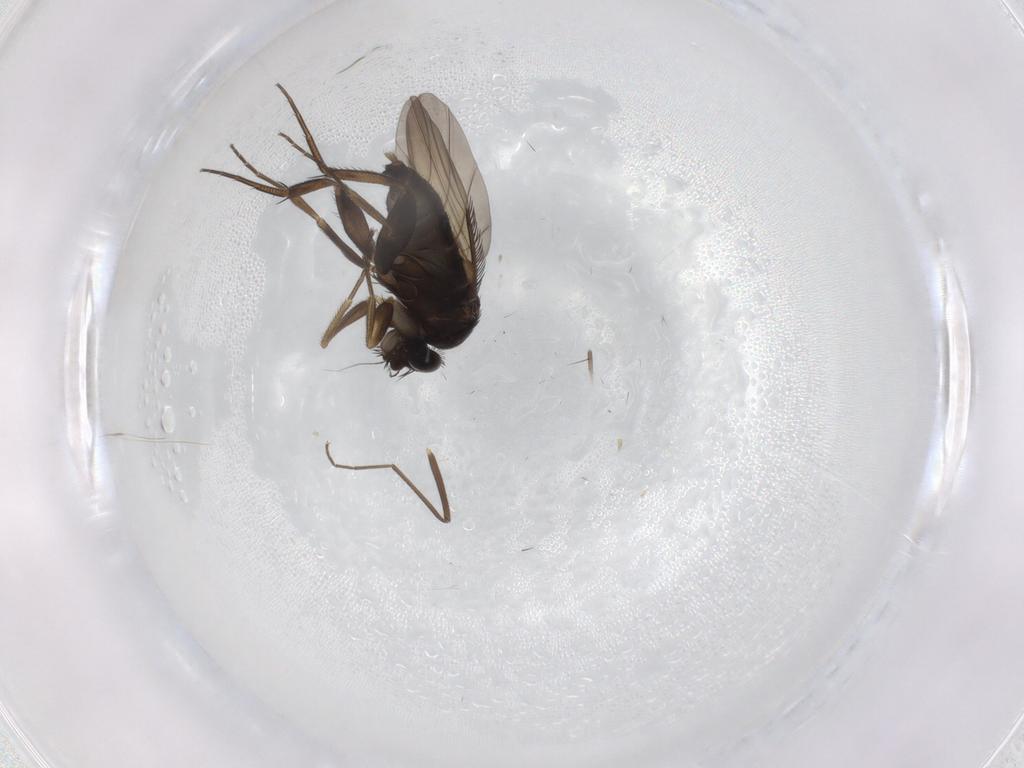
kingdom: Animalia
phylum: Arthropoda
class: Insecta
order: Diptera
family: Phoridae
